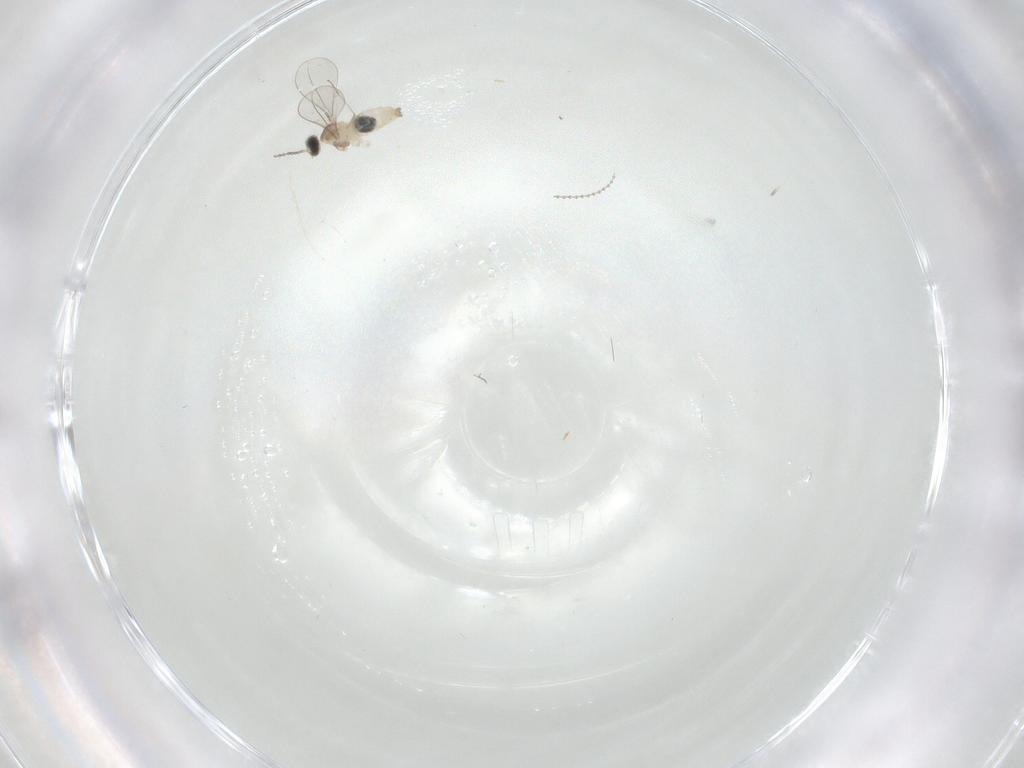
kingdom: Animalia
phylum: Arthropoda
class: Insecta
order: Diptera
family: Cecidomyiidae
